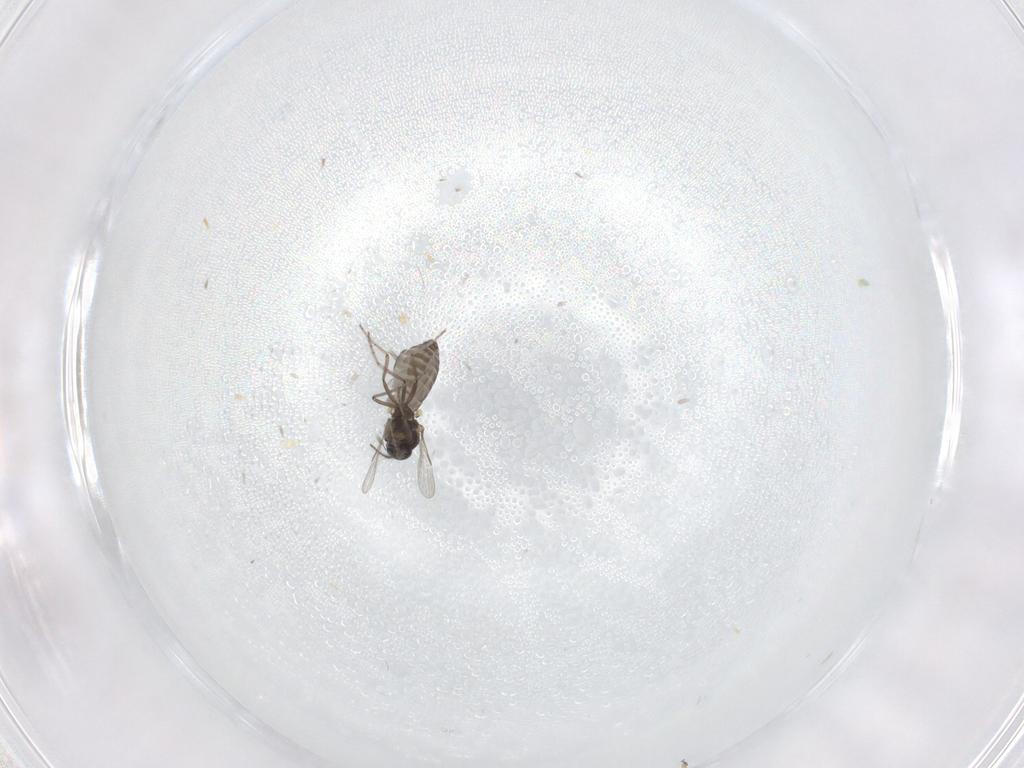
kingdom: Animalia
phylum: Arthropoda
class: Insecta
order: Diptera
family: Ceratopogonidae
